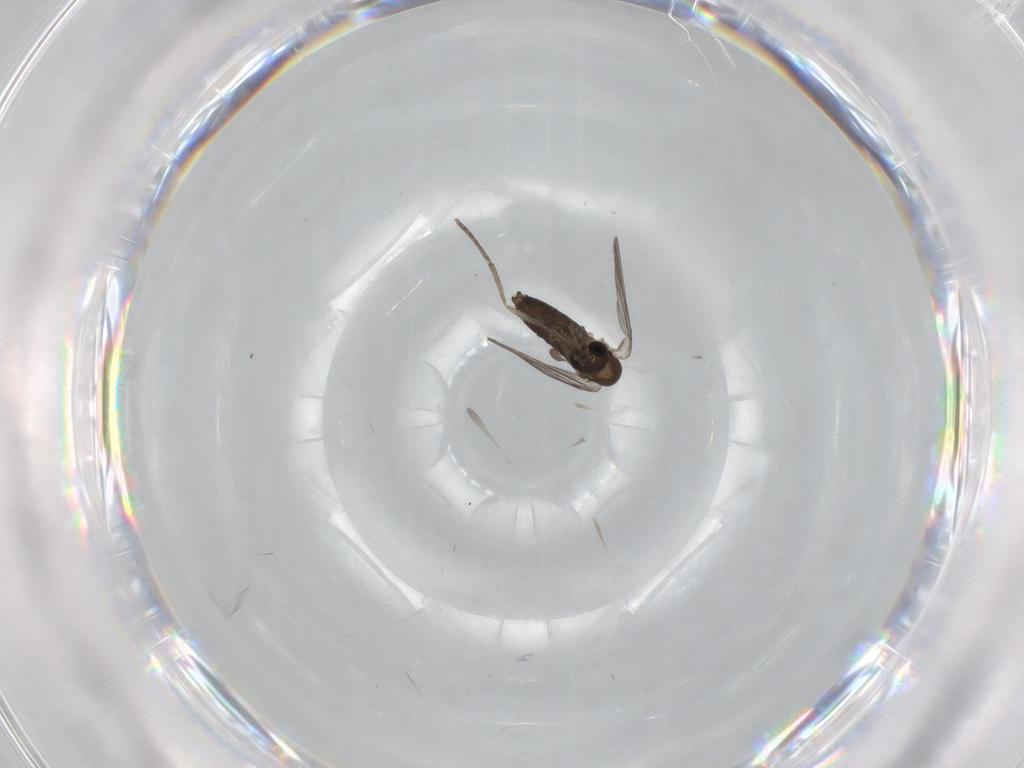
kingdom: Animalia
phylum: Arthropoda
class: Insecta
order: Diptera
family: Cecidomyiidae
